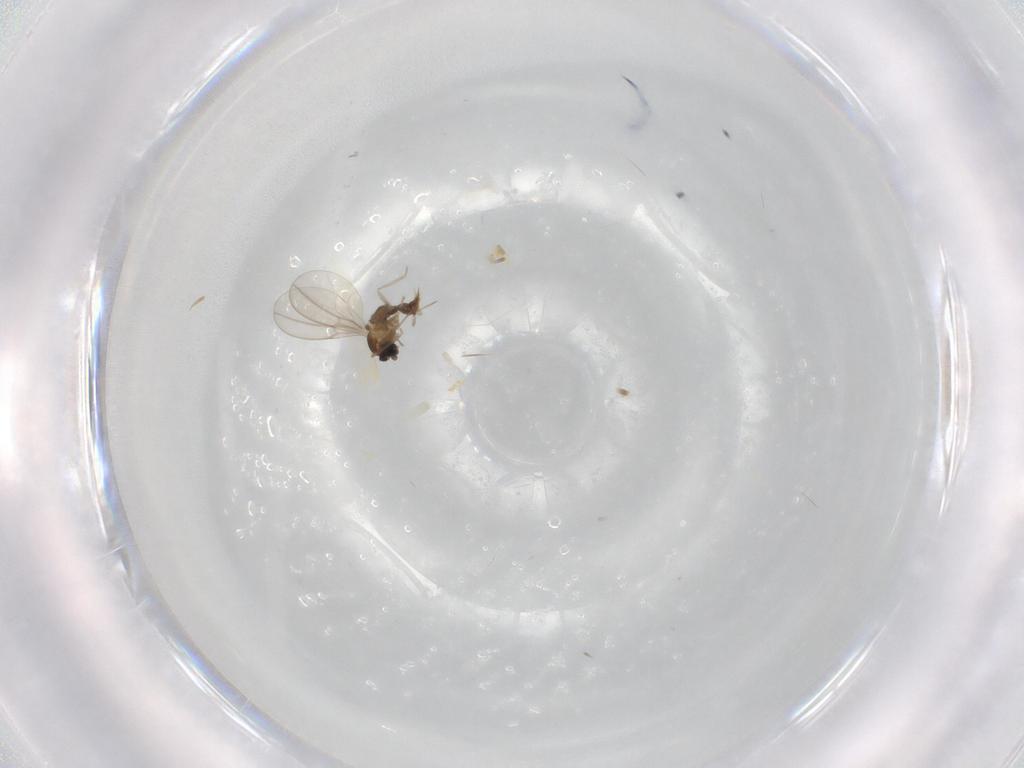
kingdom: Animalia
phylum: Arthropoda
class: Insecta
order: Diptera
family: Cecidomyiidae
